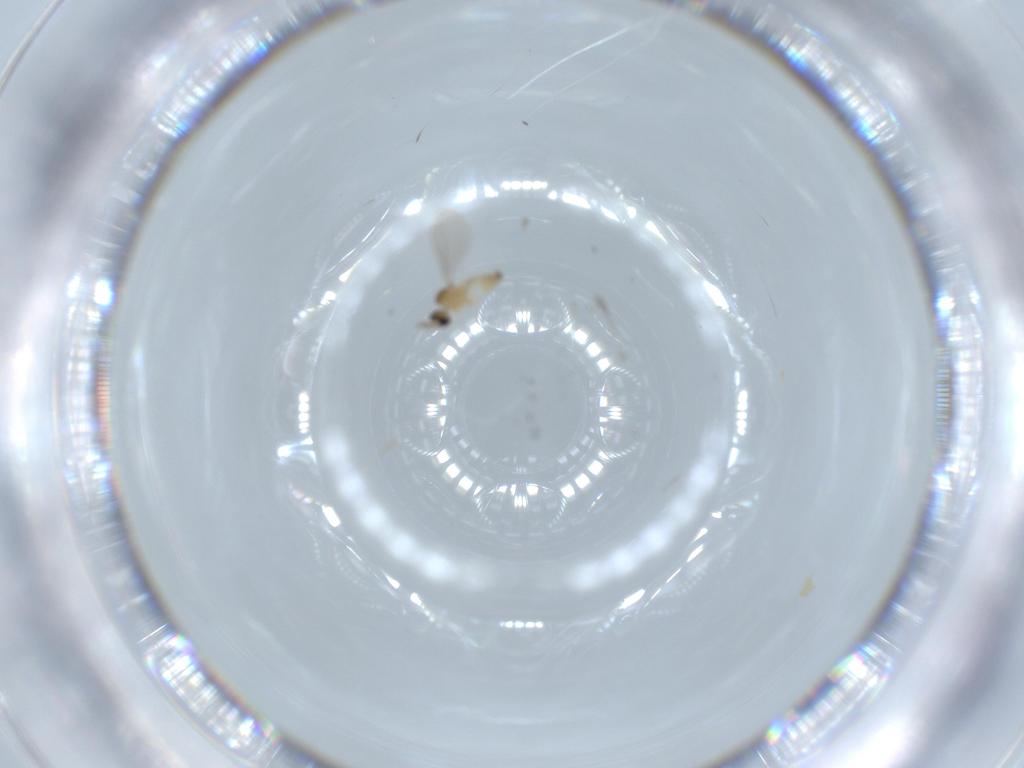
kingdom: Animalia
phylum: Arthropoda
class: Insecta
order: Diptera
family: Cecidomyiidae
